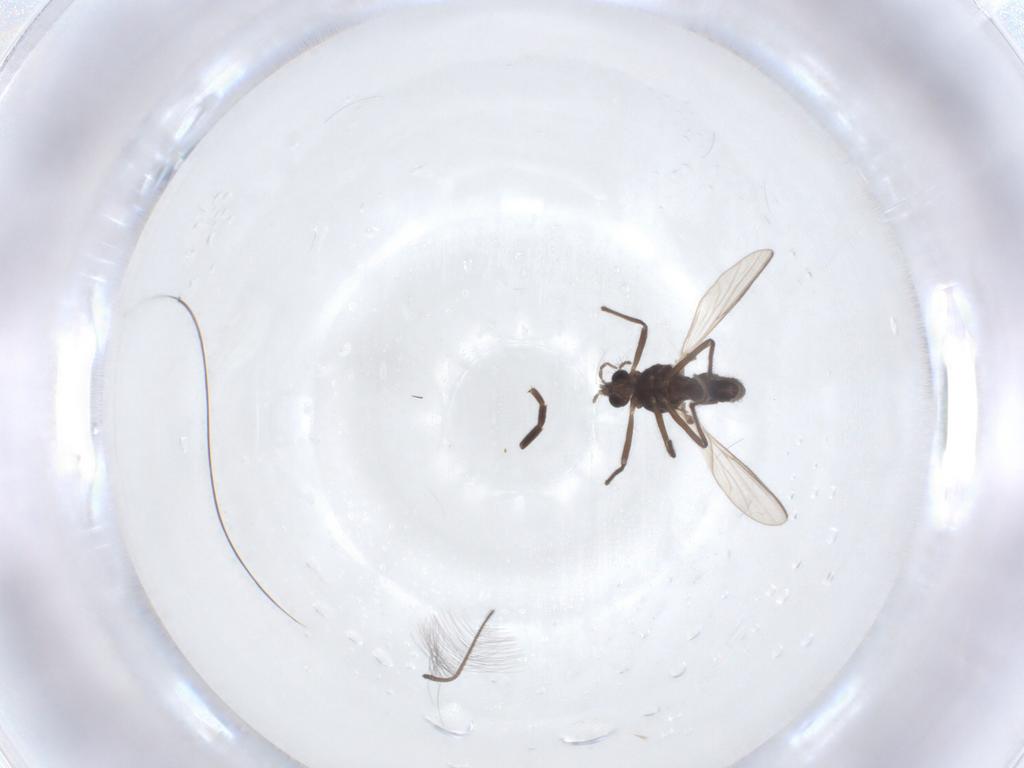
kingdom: Animalia
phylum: Arthropoda
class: Insecta
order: Diptera
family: Chironomidae
